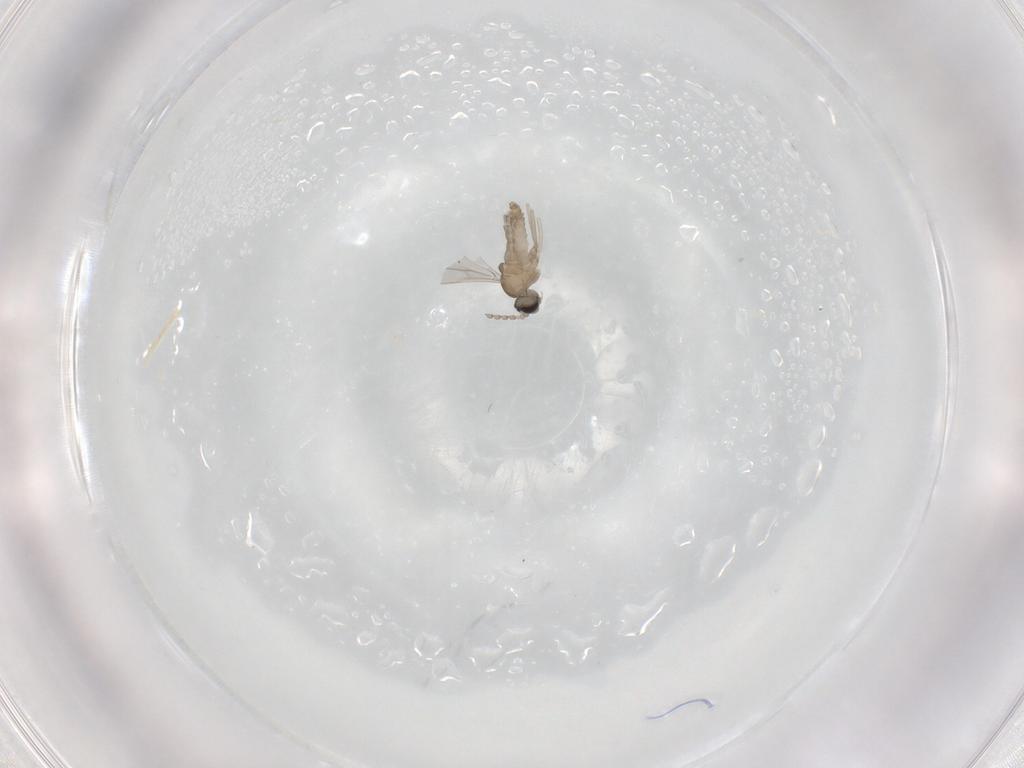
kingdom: Animalia
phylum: Arthropoda
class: Insecta
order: Diptera
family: Cecidomyiidae
